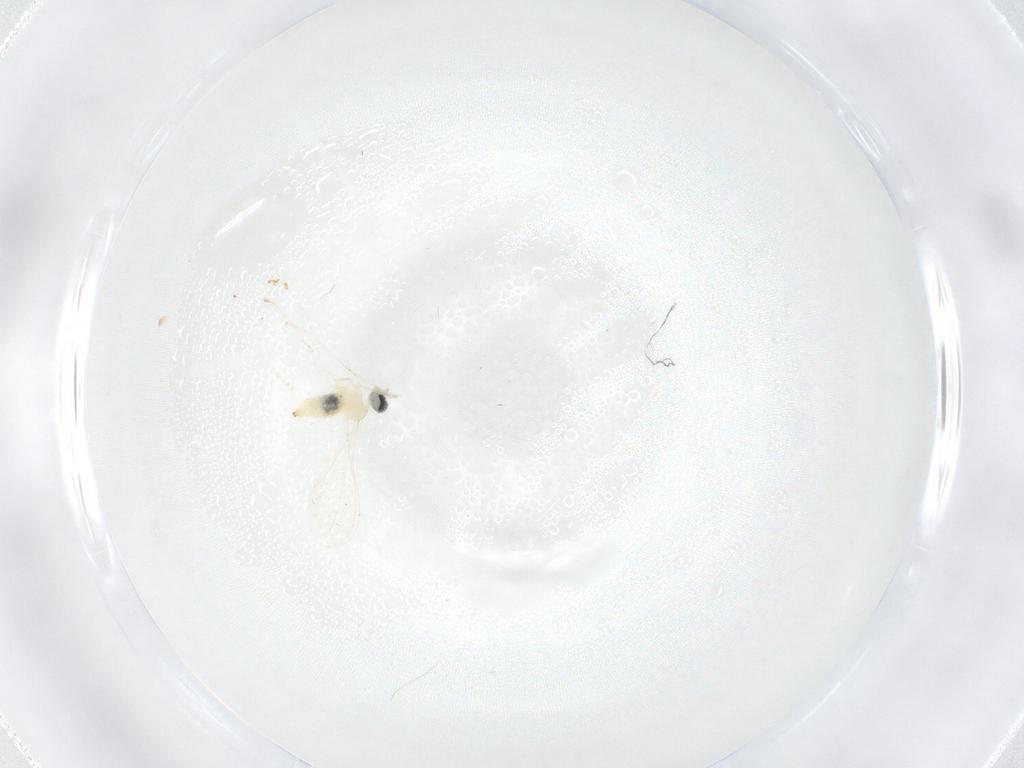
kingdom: Animalia
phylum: Arthropoda
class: Insecta
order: Diptera
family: Cecidomyiidae
